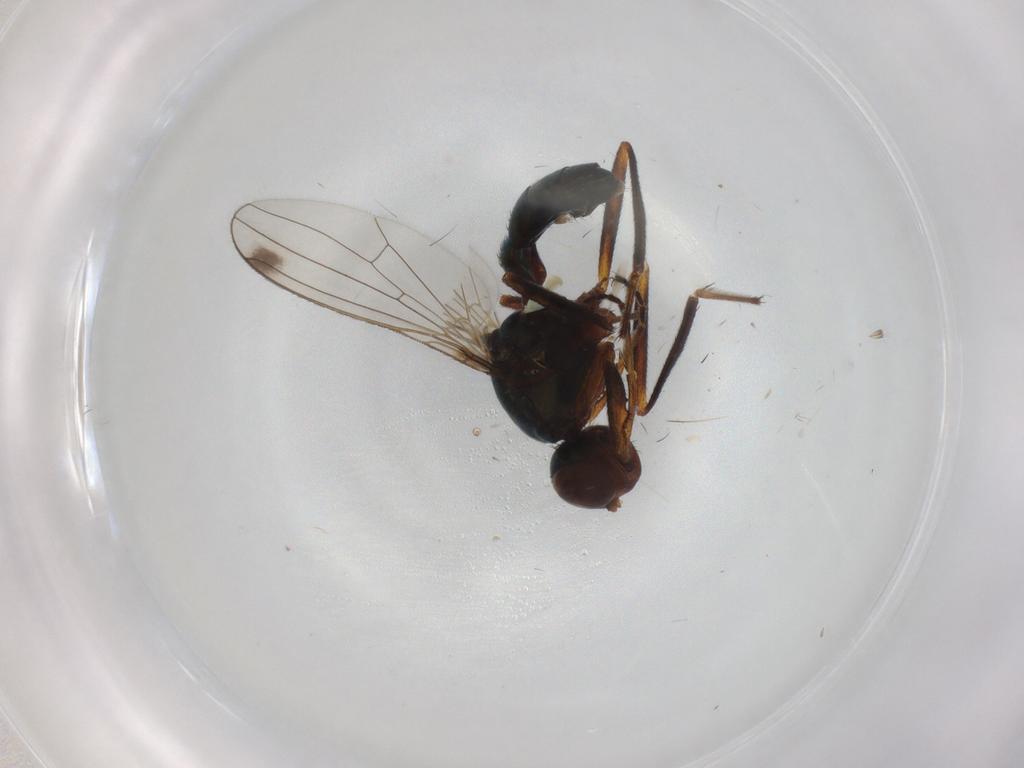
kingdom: Animalia
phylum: Arthropoda
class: Insecta
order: Diptera
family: Sepsidae
